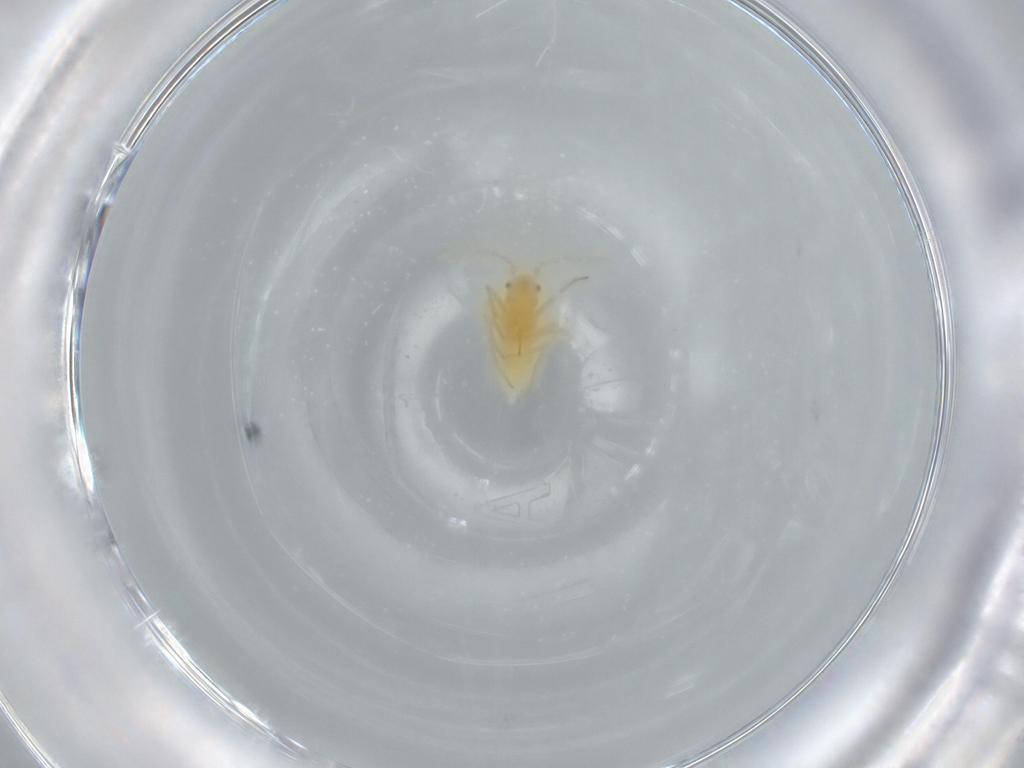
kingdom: Animalia
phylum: Arthropoda
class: Insecta
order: Hemiptera
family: Miridae
